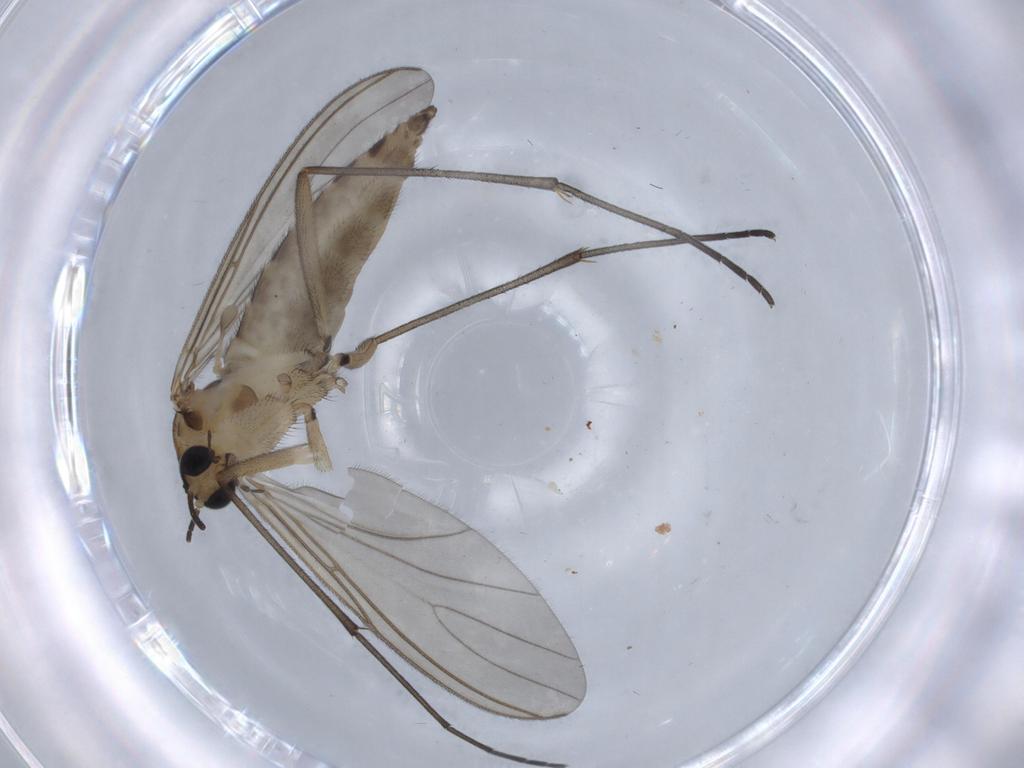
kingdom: Animalia
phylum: Arthropoda
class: Insecta
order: Diptera
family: Sciaridae
